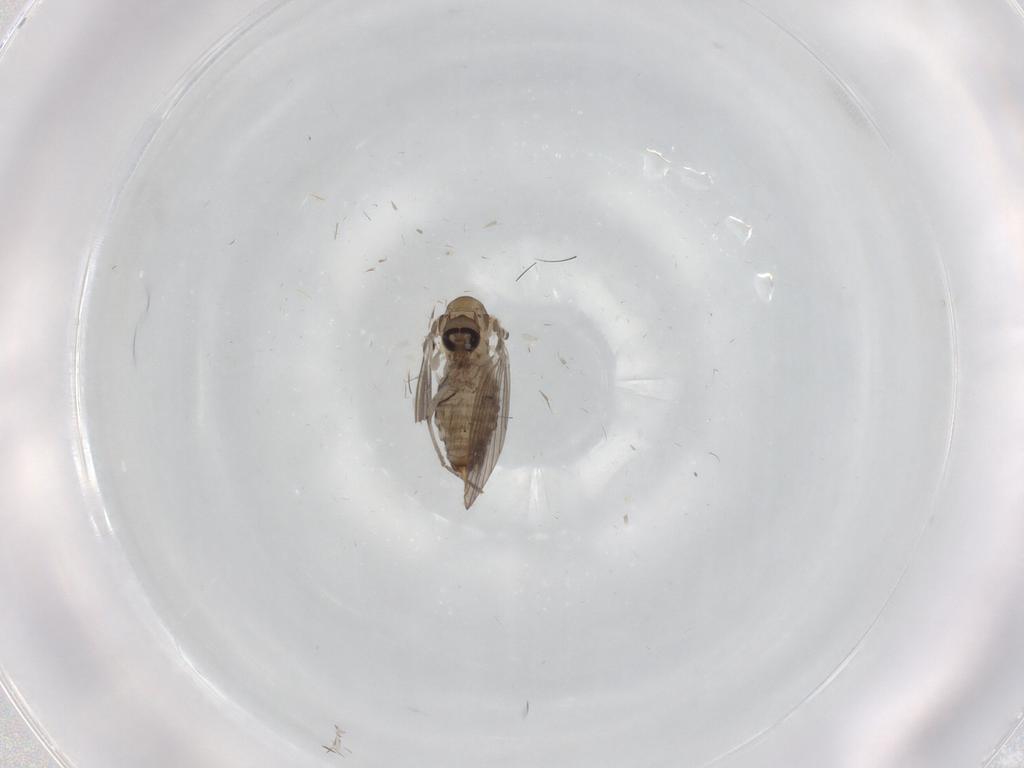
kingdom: Animalia
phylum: Arthropoda
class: Insecta
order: Diptera
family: Psychodidae
